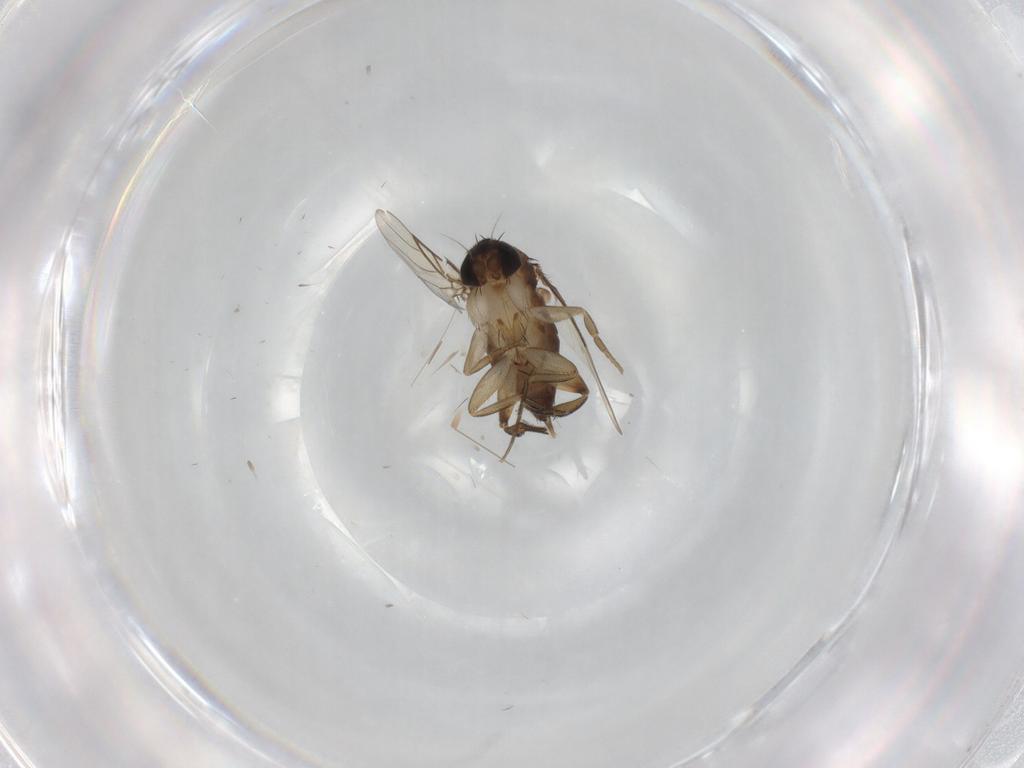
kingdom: Animalia
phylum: Arthropoda
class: Insecta
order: Diptera
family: Phoridae
